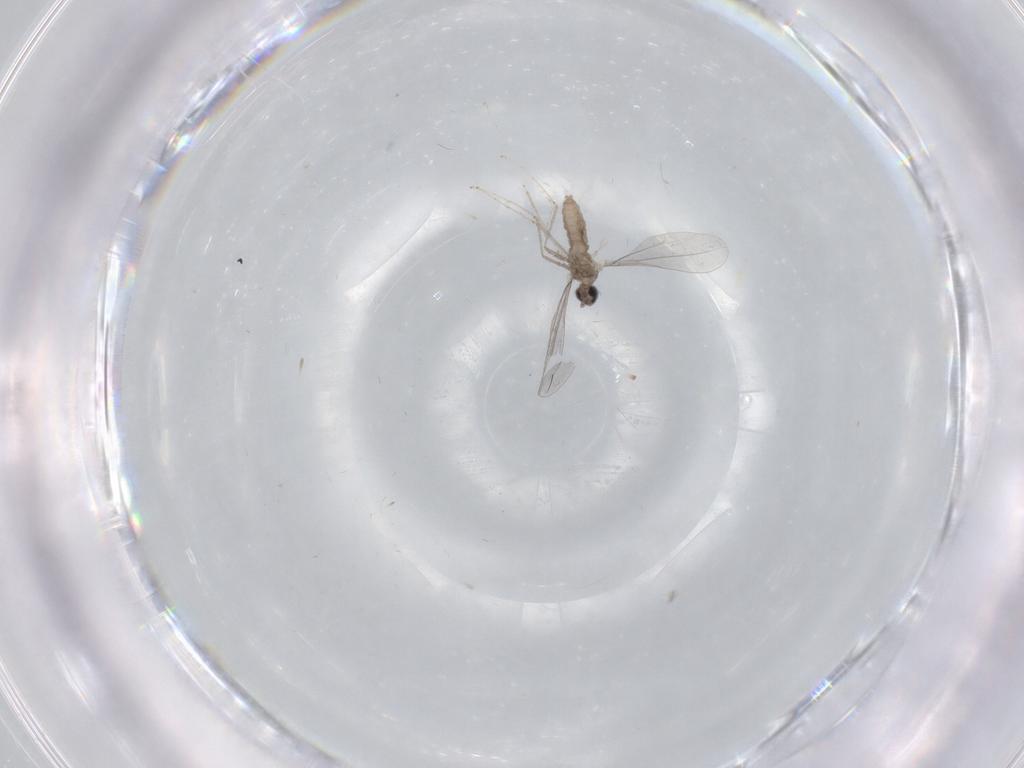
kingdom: Animalia
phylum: Arthropoda
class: Insecta
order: Diptera
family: Cecidomyiidae
